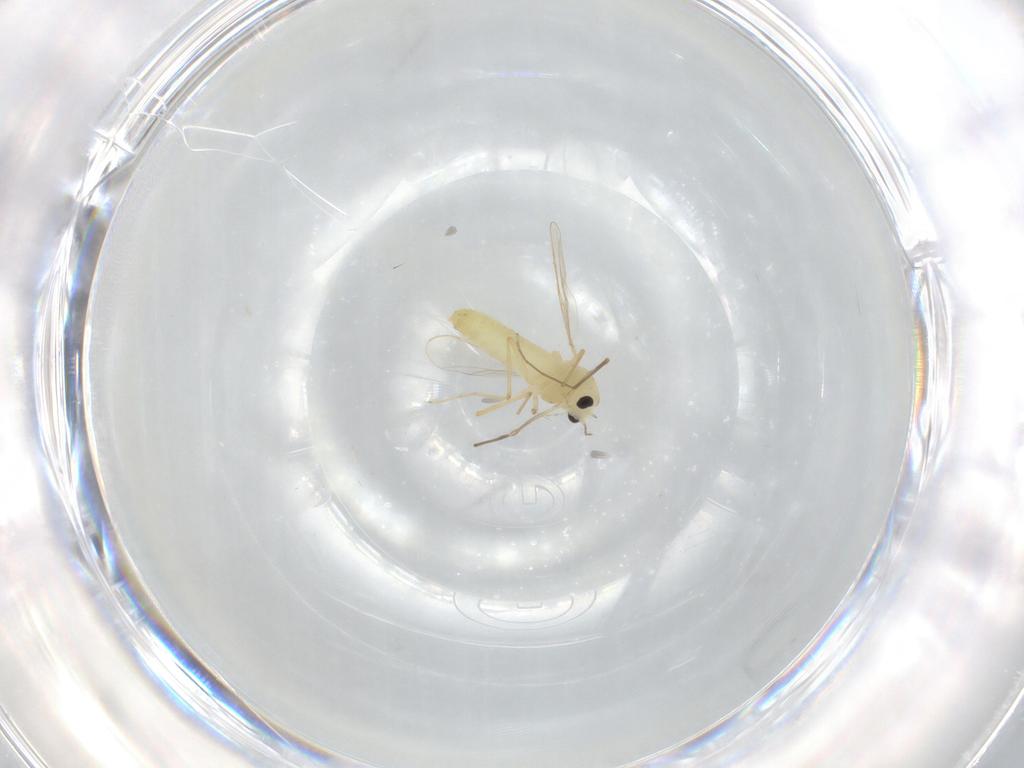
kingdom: Animalia
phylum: Arthropoda
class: Insecta
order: Diptera
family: Chironomidae
